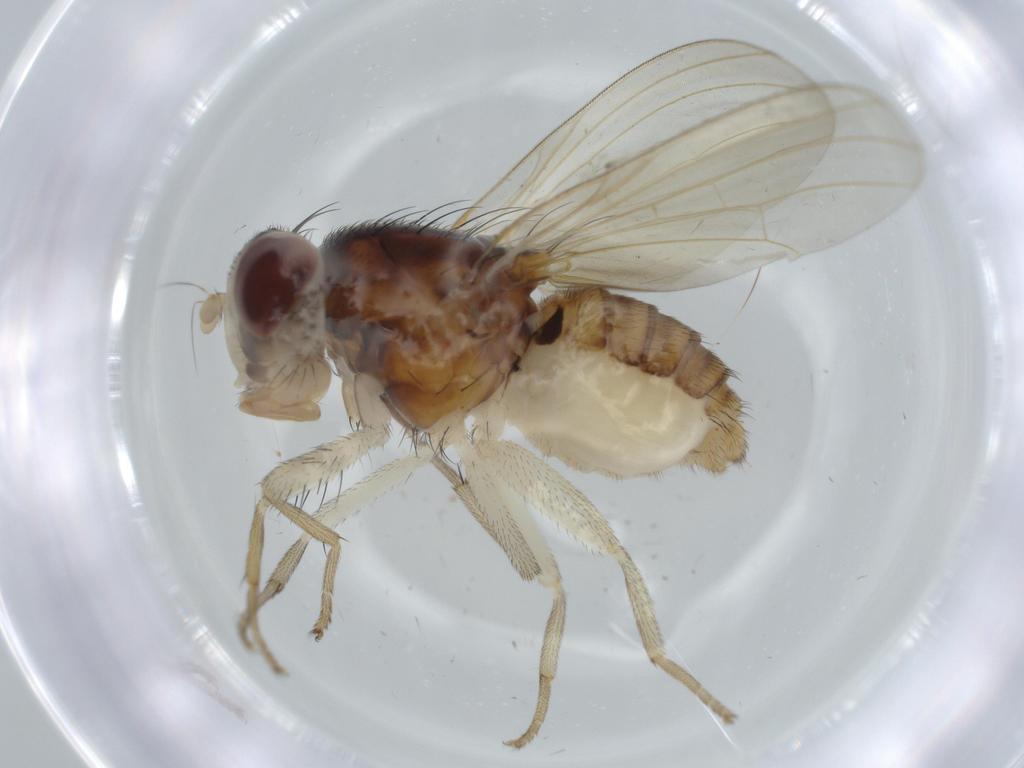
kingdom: Animalia
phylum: Arthropoda
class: Insecta
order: Diptera
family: Lauxaniidae
